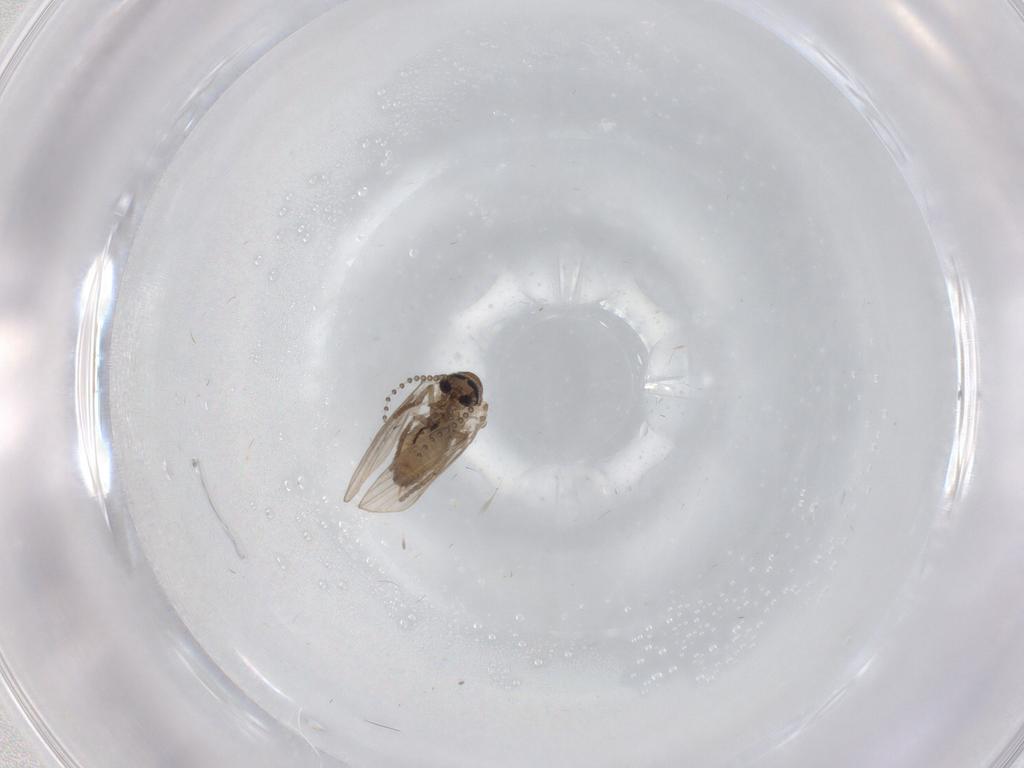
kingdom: Animalia
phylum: Arthropoda
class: Insecta
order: Diptera
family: Psychodidae
